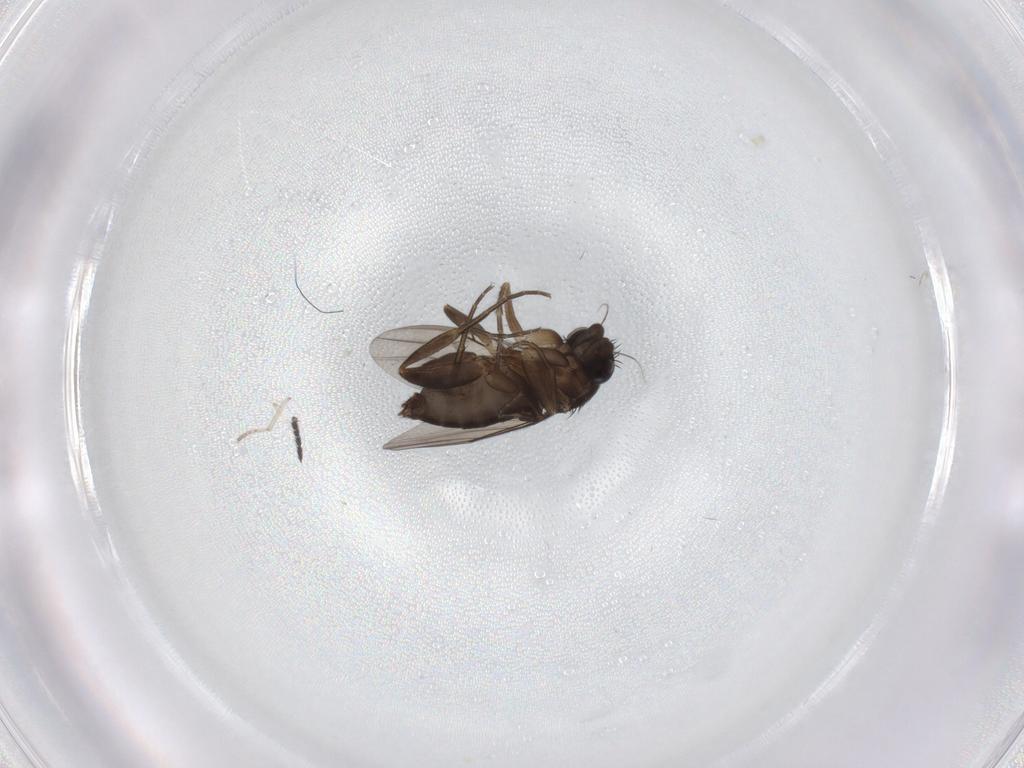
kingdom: Animalia
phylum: Arthropoda
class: Insecta
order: Diptera
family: Phoridae
